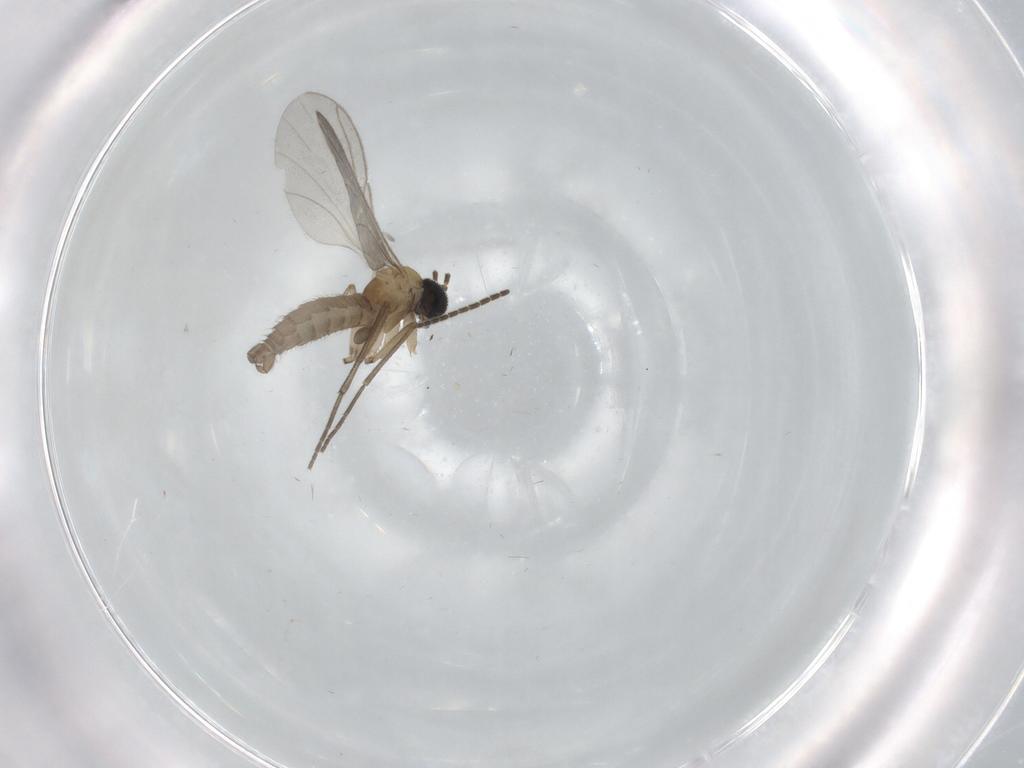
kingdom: Animalia
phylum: Arthropoda
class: Insecta
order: Diptera
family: Sciaridae
